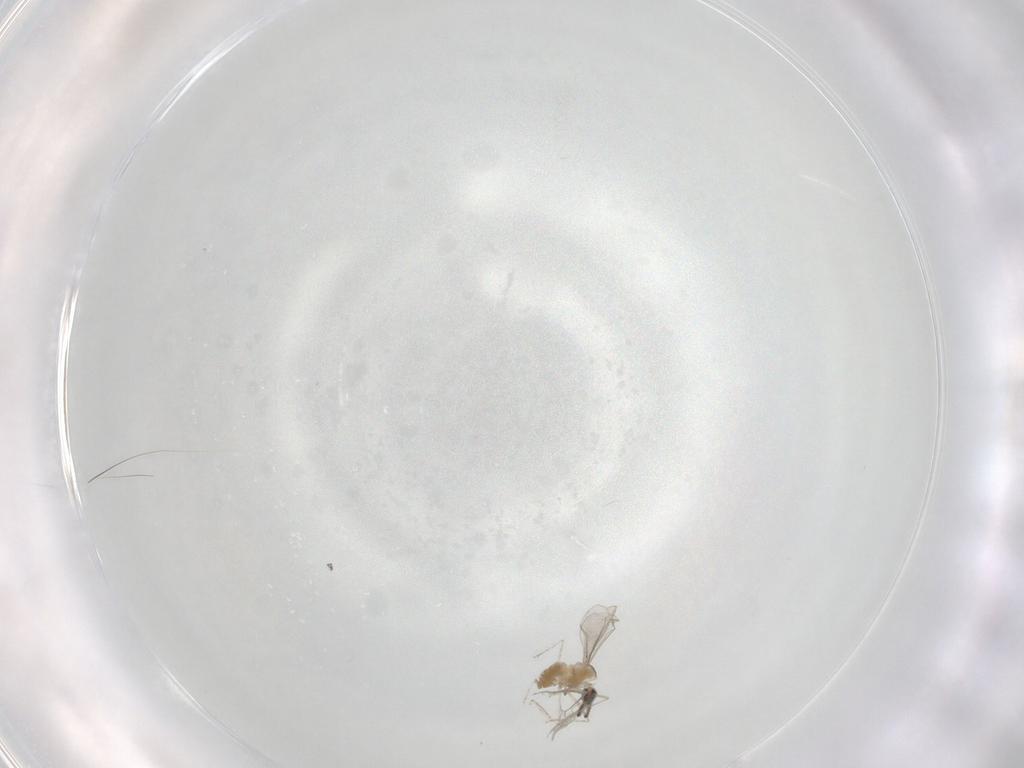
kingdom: Animalia
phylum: Arthropoda
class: Insecta
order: Diptera
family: Cecidomyiidae
